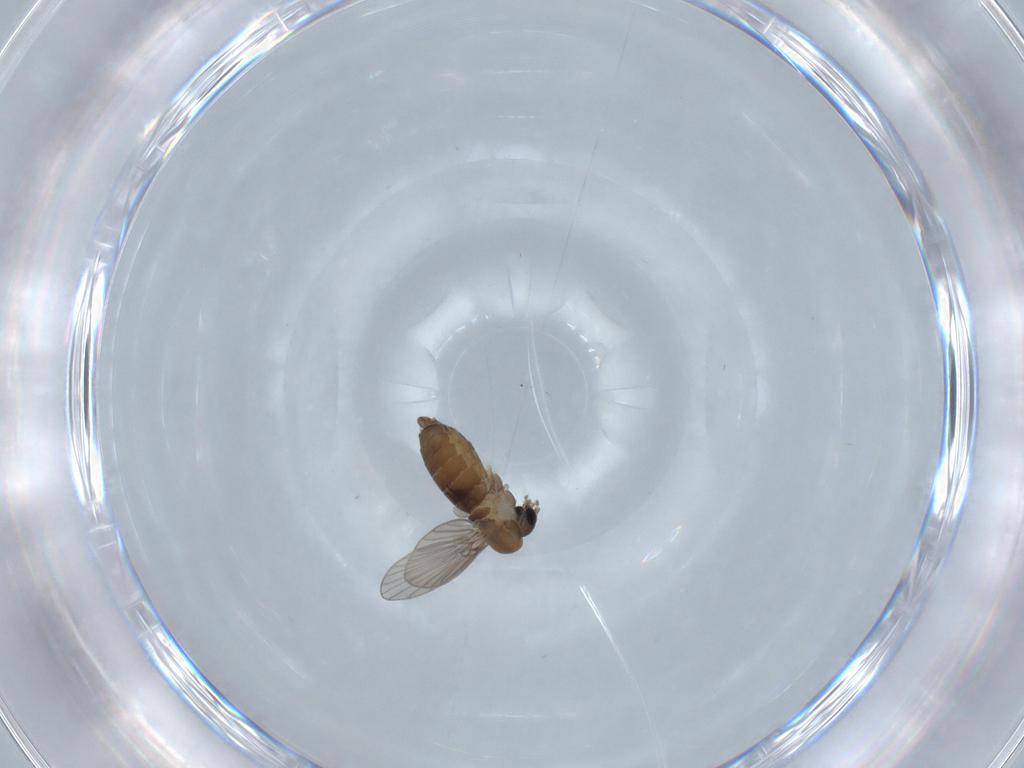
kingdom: Animalia
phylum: Arthropoda
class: Insecta
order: Diptera
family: Psychodidae
